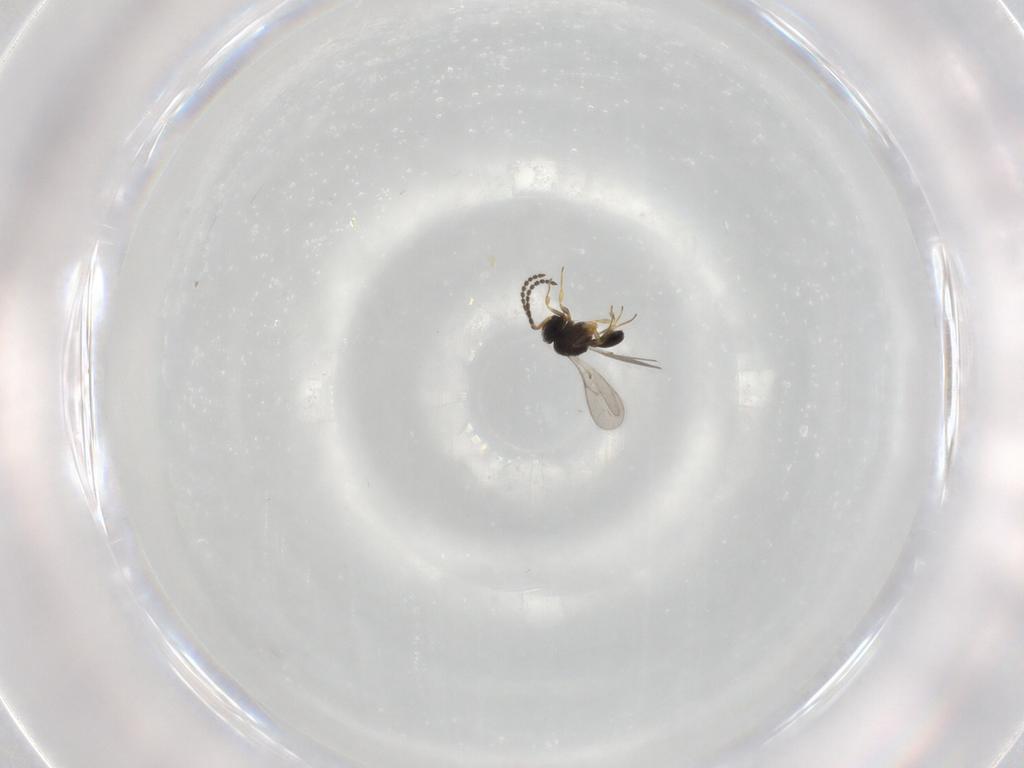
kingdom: Animalia
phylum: Arthropoda
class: Insecta
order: Hymenoptera
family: Scelionidae
